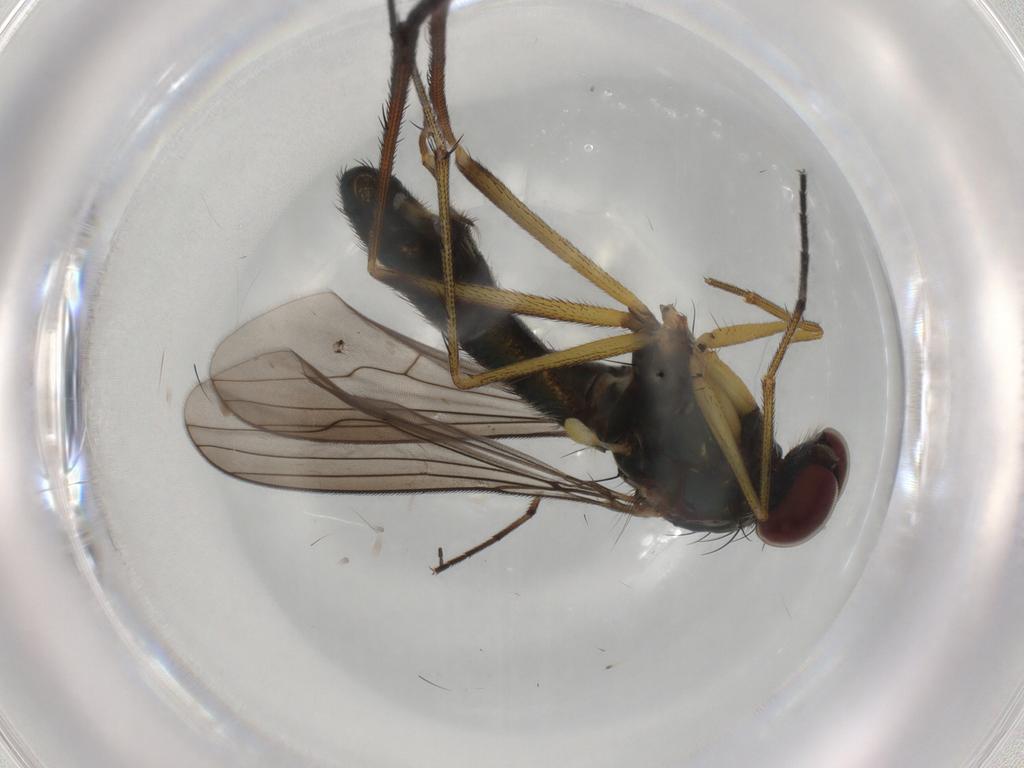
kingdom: Animalia
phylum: Arthropoda
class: Insecta
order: Diptera
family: Dolichopodidae
